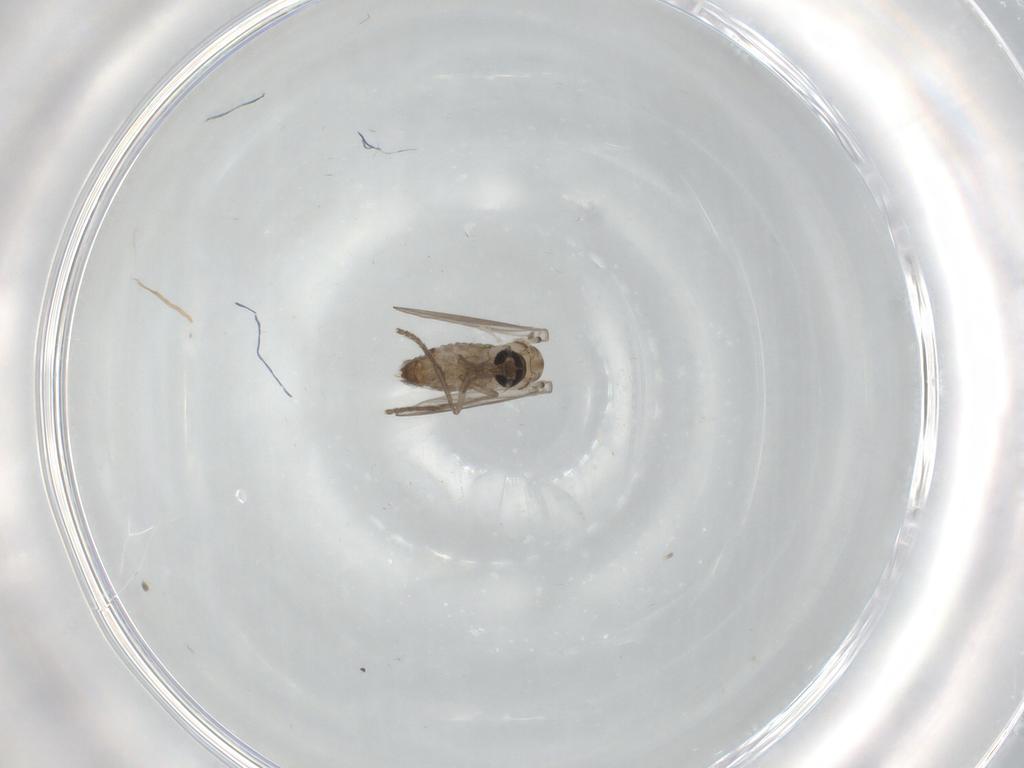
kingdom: Animalia
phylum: Arthropoda
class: Insecta
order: Diptera
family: Psychodidae
